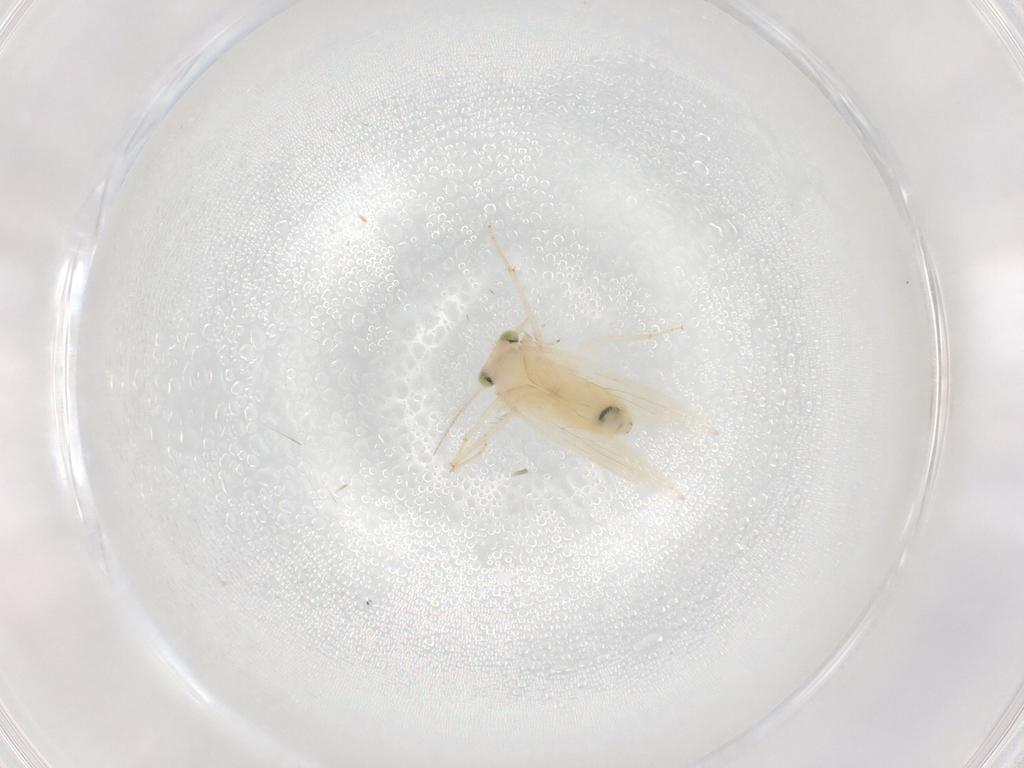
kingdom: Animalia
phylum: Arthropoda
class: Insecta
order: Psocodea
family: Lepidopsocidae
